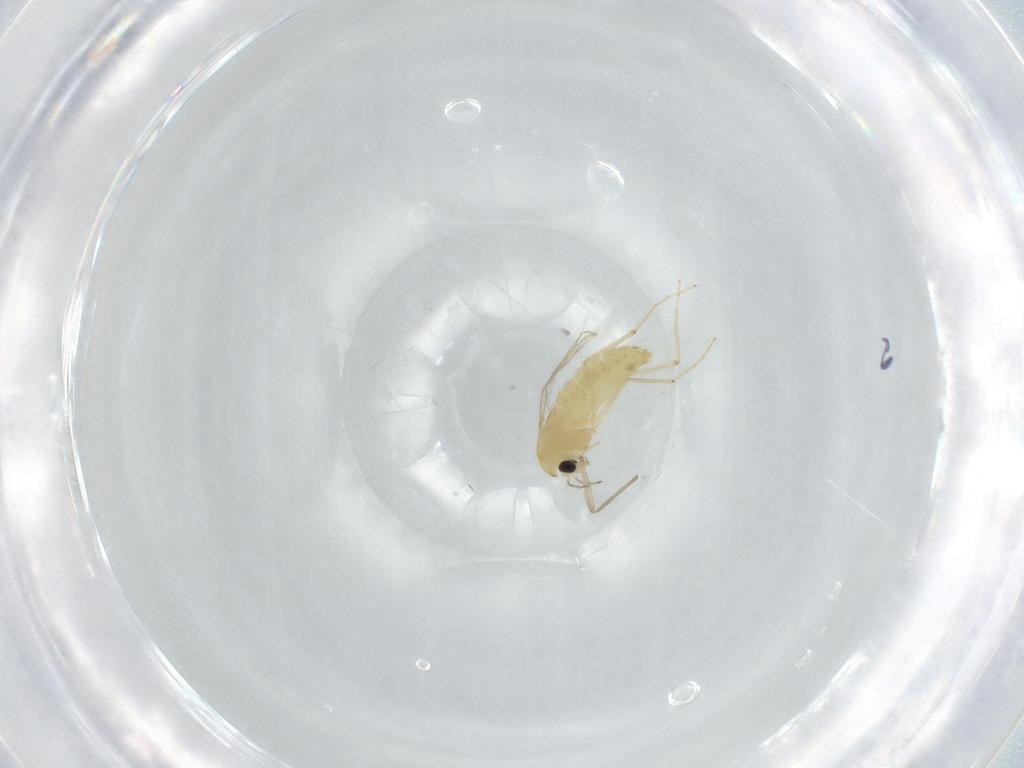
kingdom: Animalia
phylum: Arthropoda
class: Insecta
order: Diptera
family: Chironomidae
